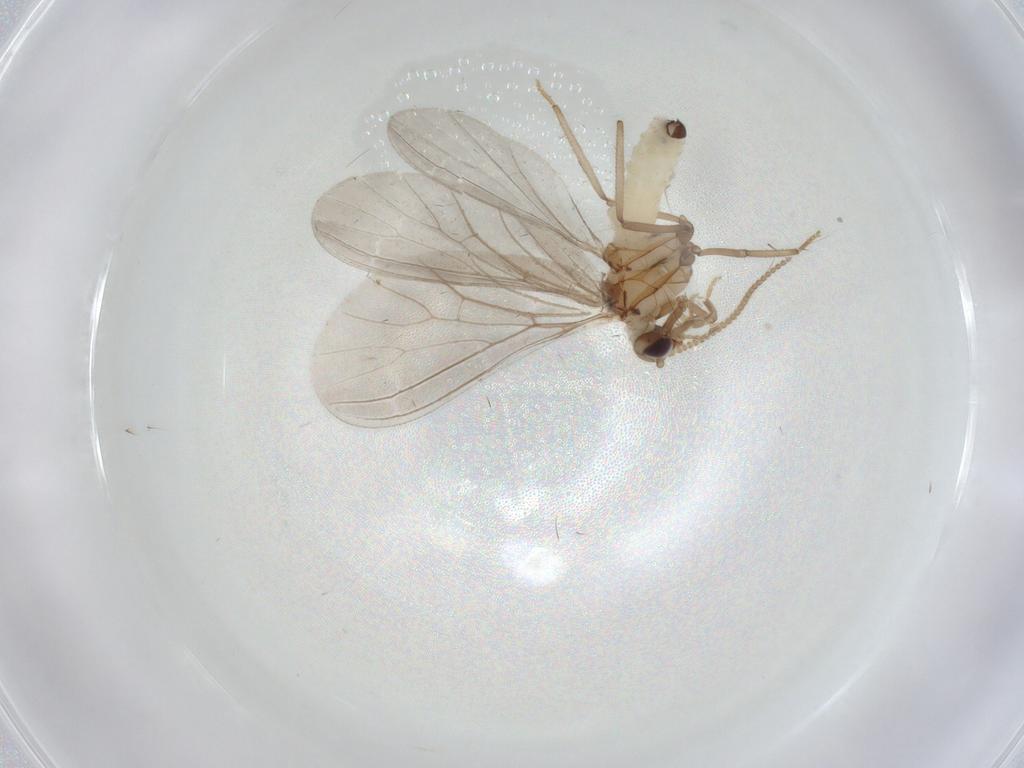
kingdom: Animalia
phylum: Arthropoda
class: Insecta
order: Neuroptera
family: Coniopterygidae
